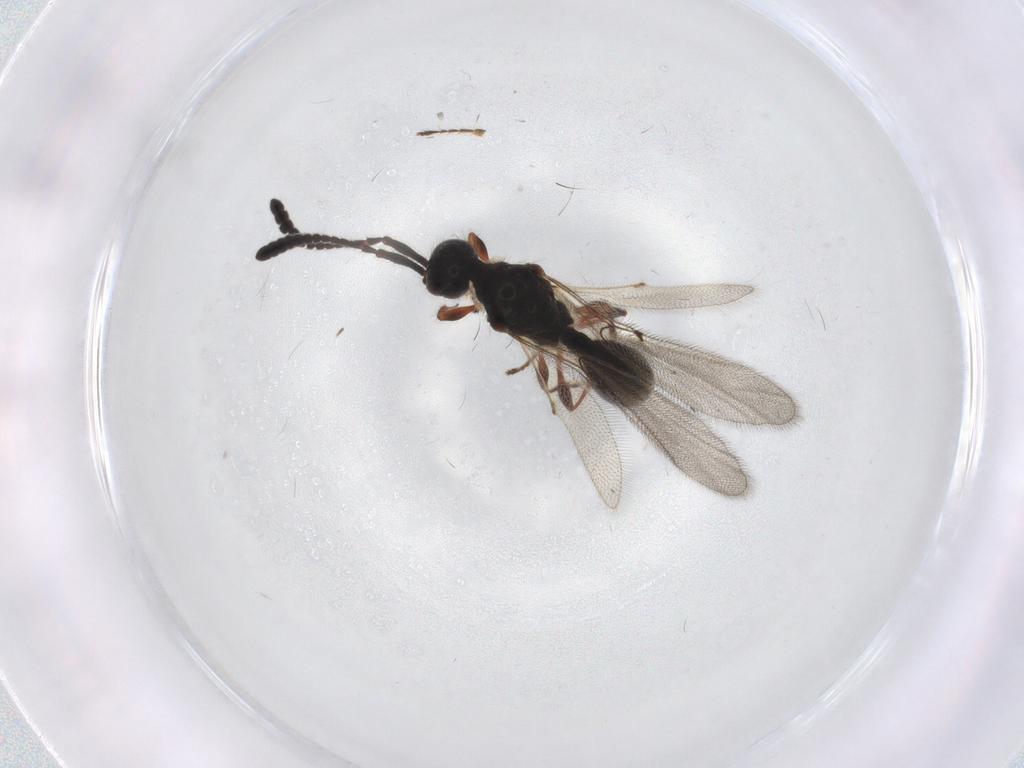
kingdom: Animalia
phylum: Arthropoda
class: Insecta
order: Hymenoptera
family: Diapriidae
